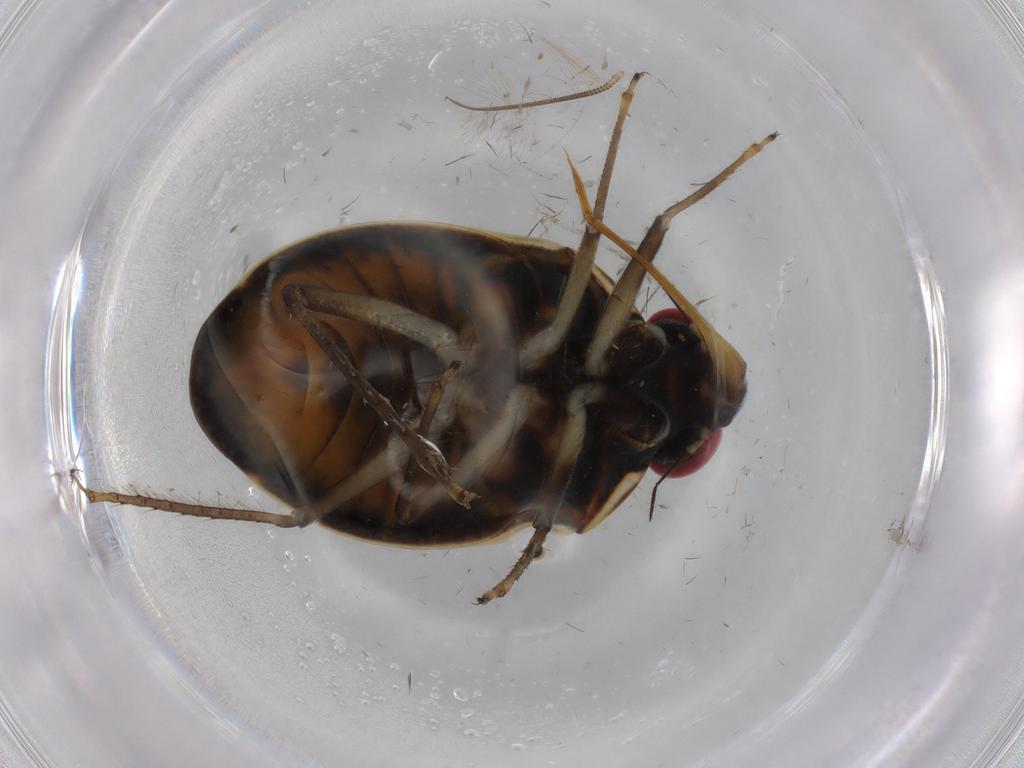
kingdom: Animalia
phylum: Arthropoda
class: Insecta
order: Hemiptera
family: Ochteridae
